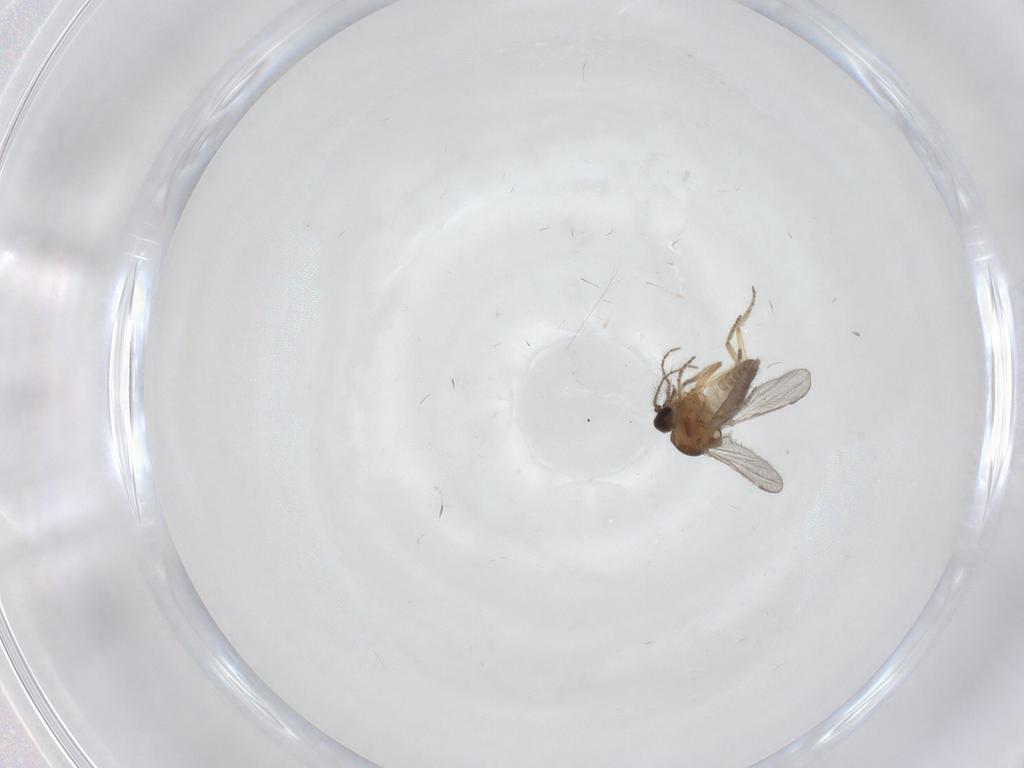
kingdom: Animalia
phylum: Arthropoda
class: Insecta
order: Diptera
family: Ceratopogonidae
